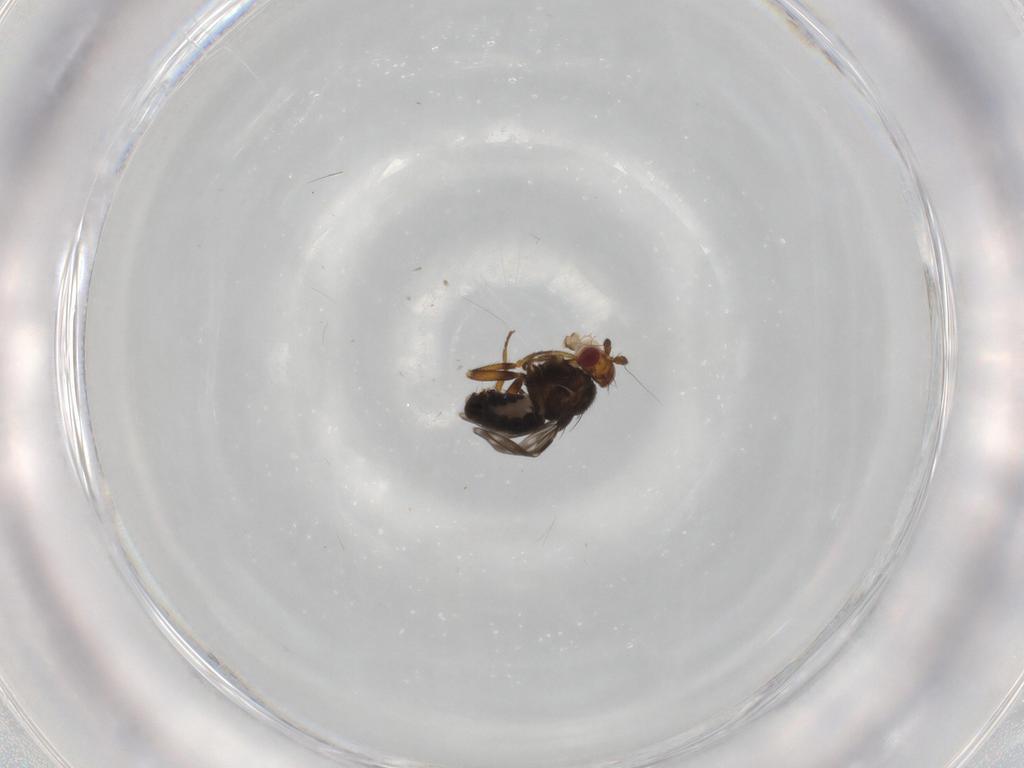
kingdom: Animalia
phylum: Arthropoda
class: Insecta
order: Diptera
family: Sphaeroceridae
